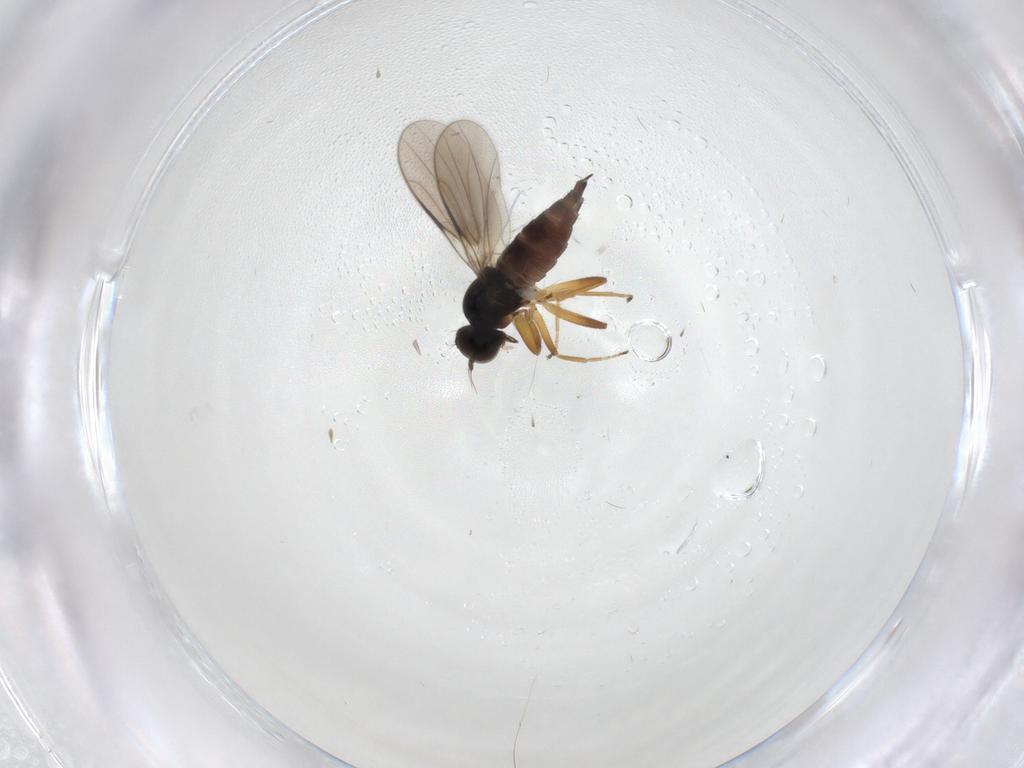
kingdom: Animalia
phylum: Arthropoda
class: Insecta
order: Diptera
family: Hybotidae
